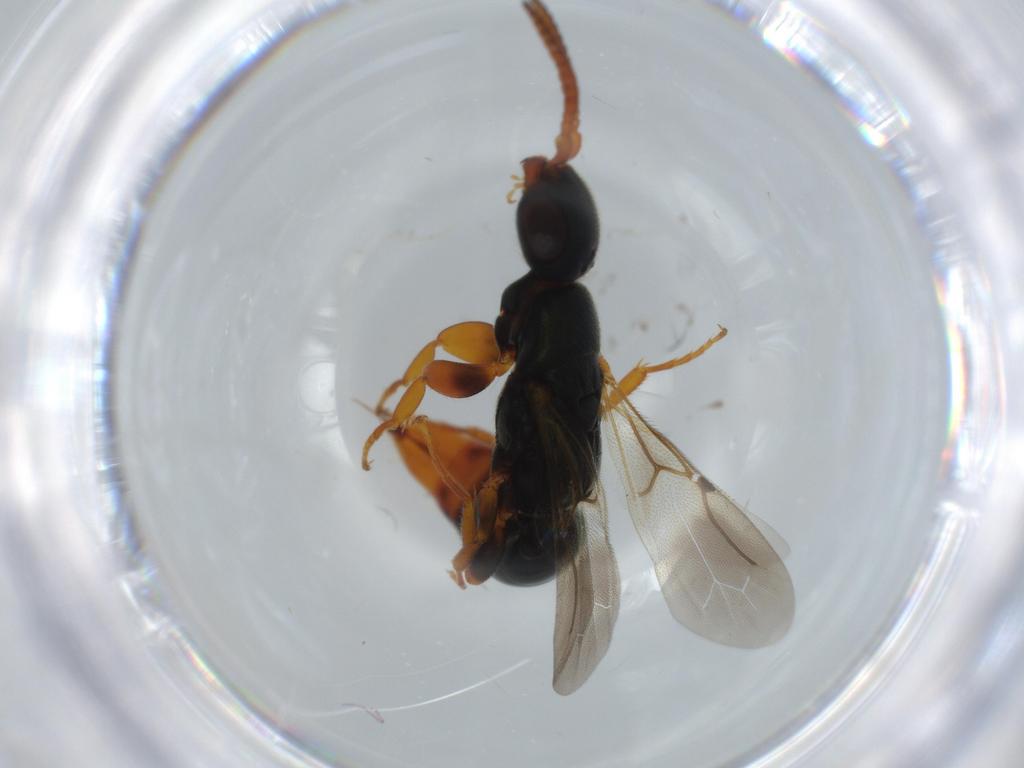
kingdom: Animalia
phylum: Arthropoda
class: Insecta
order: Hymenoptera
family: Bethylidae
